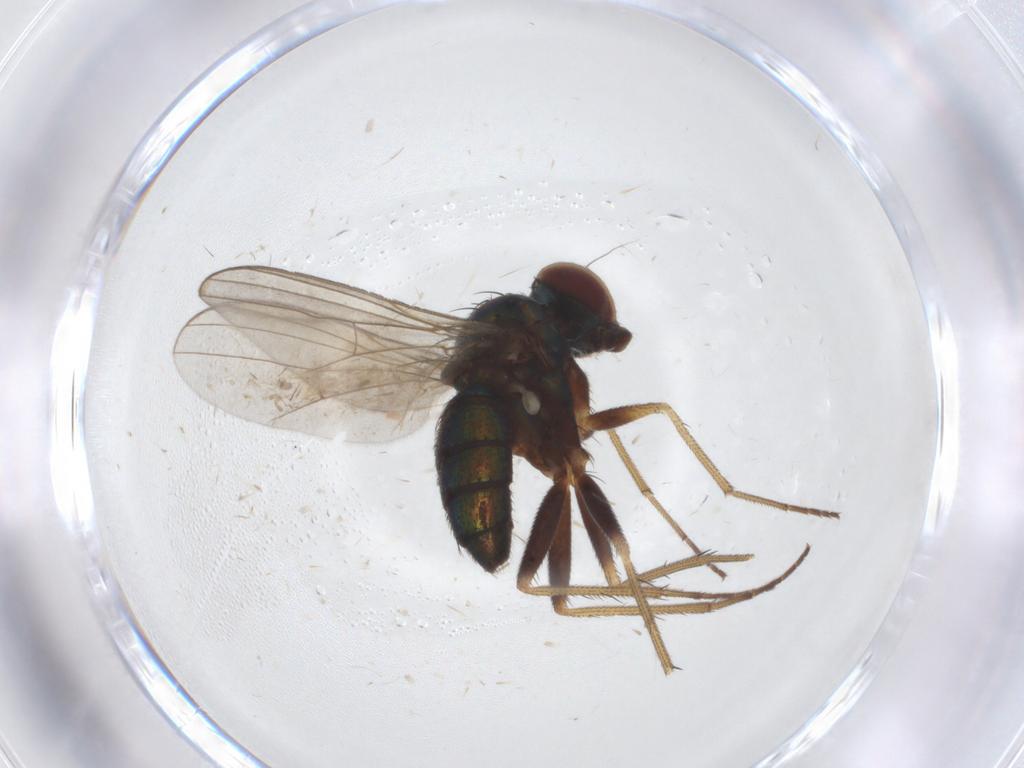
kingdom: Animalia
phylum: Arthropoda
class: Insecta
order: Diptera
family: Dolichopodidae
